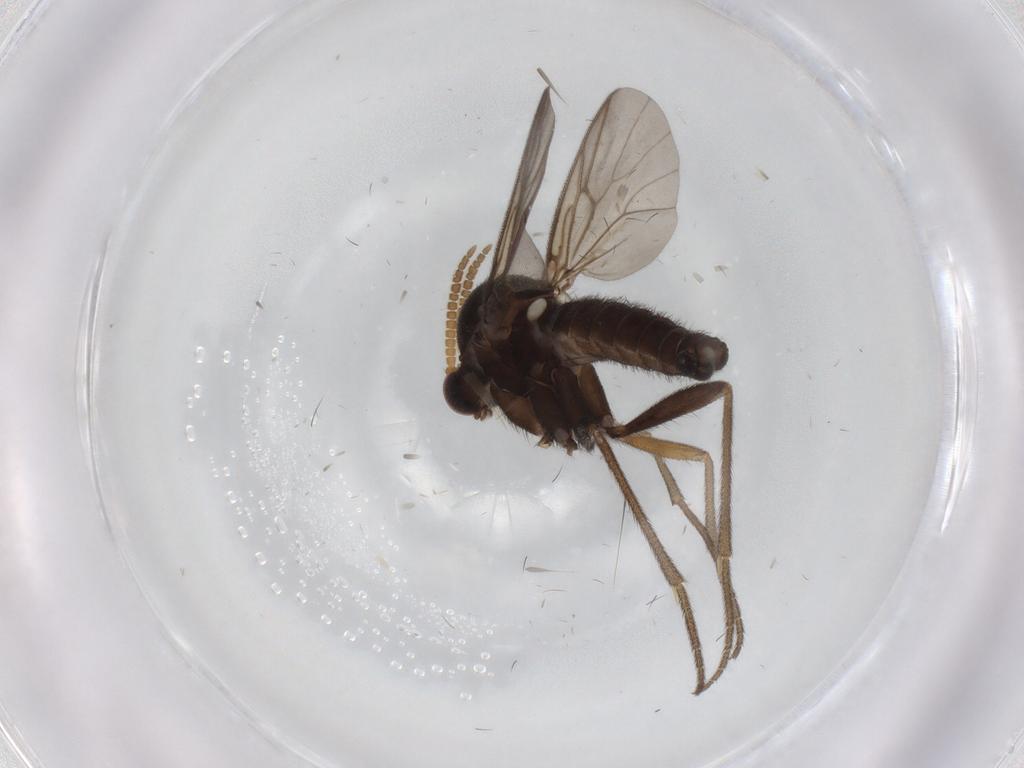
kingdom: Animalia
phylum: Arthropoda
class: Insecta
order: Diptera
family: Mycetophilidae
